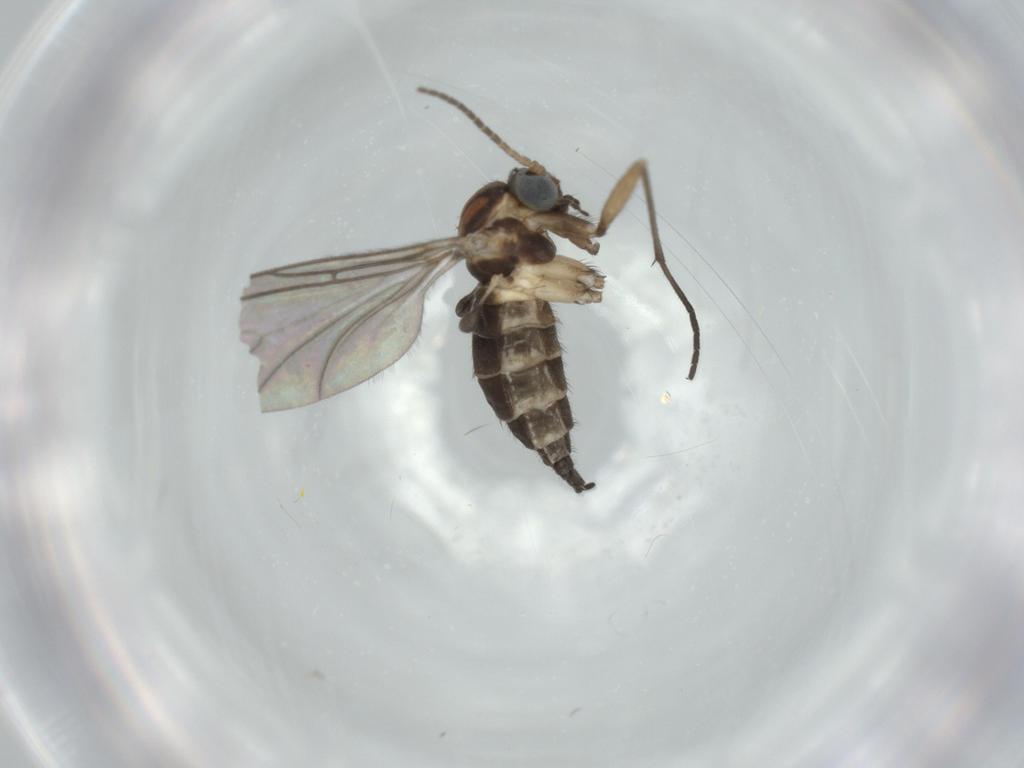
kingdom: Animalia
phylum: Arthropoda
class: Insecta
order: Diptera
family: Sciaridae
